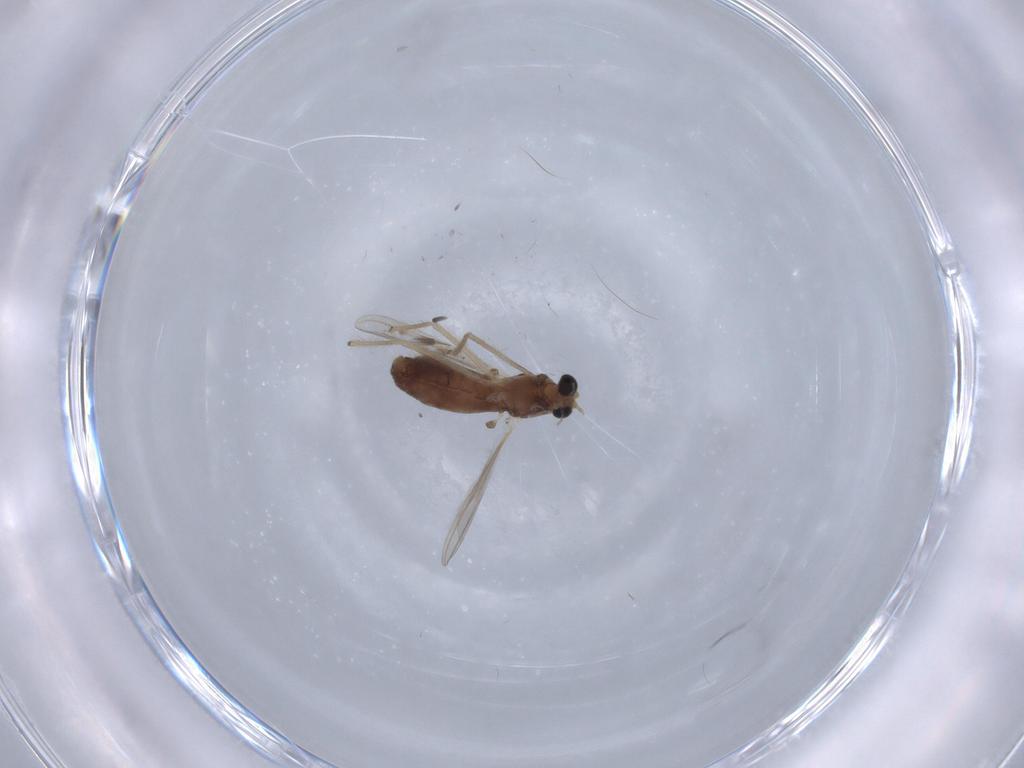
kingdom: Animalia
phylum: Arthropoda
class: Insecta
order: Diptera
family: Chironomidae
